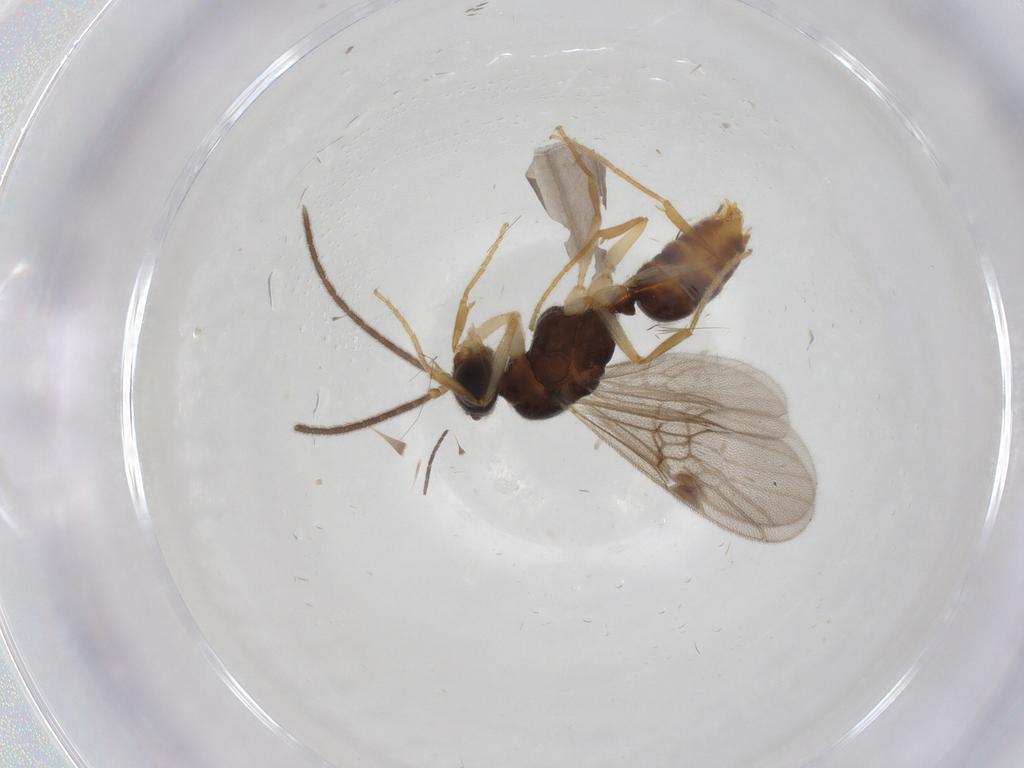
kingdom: Animalia
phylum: Arthropoda
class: Insecta
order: Hymenoptera
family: Formicidae
